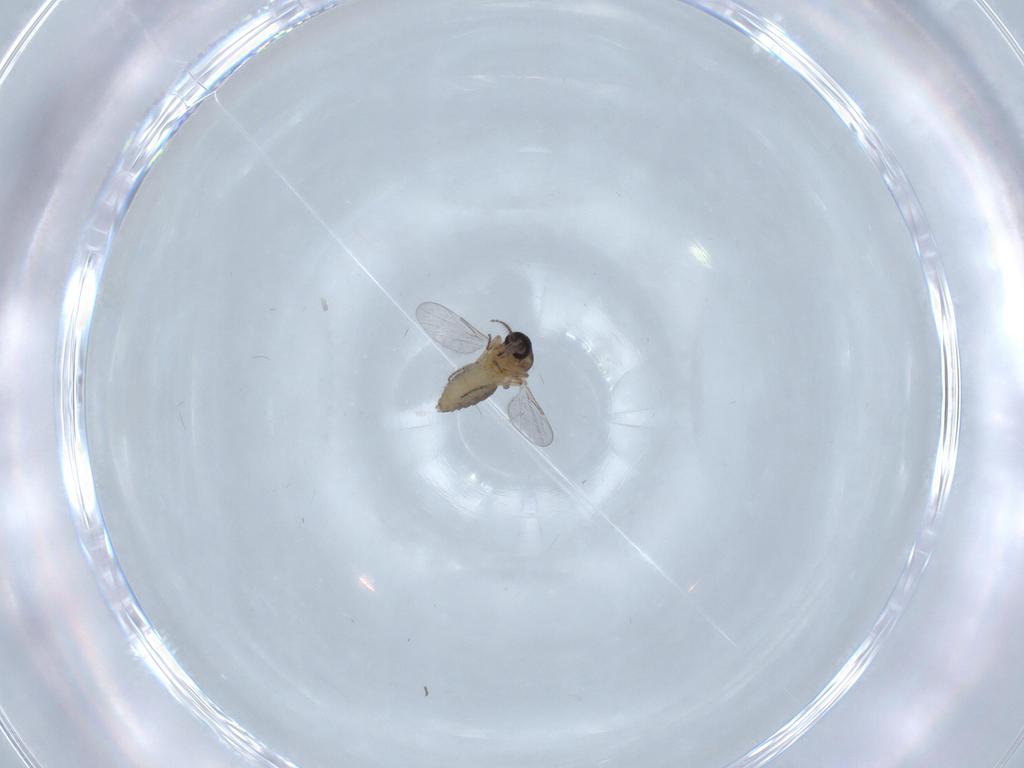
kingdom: Animalia
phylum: Arthropoda
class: Insecta
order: Diptera
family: Ceratopogonidae
